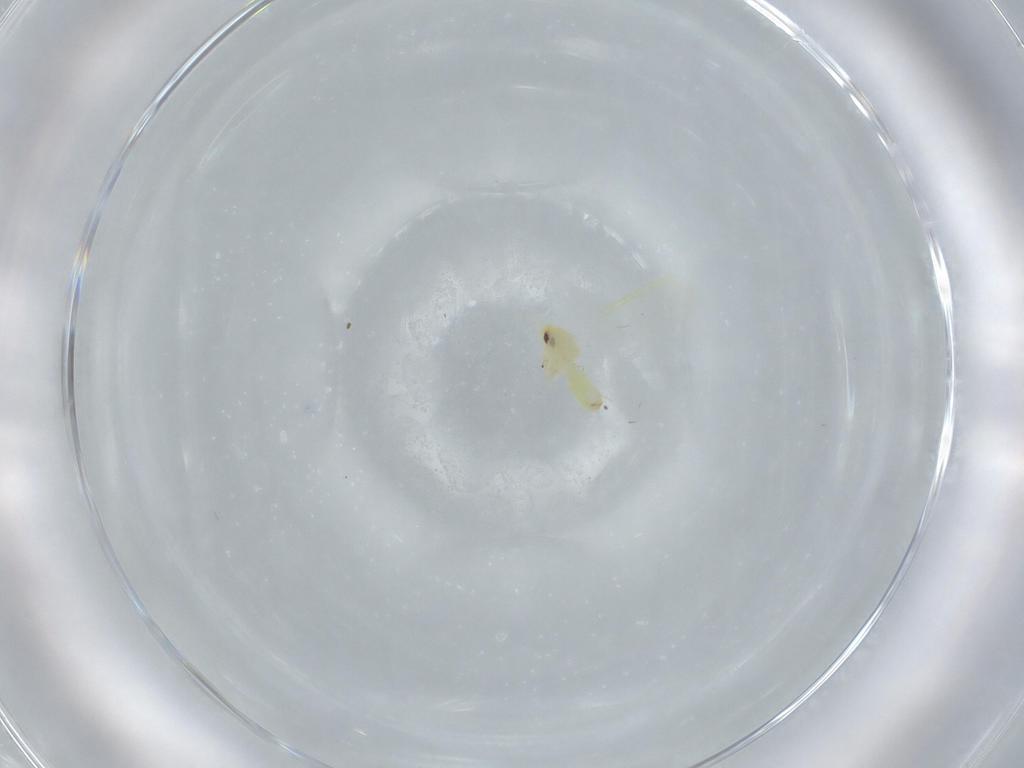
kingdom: Animalia
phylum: Arthropoda
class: Insecta
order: Hemiptera
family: Aleyrodidae
